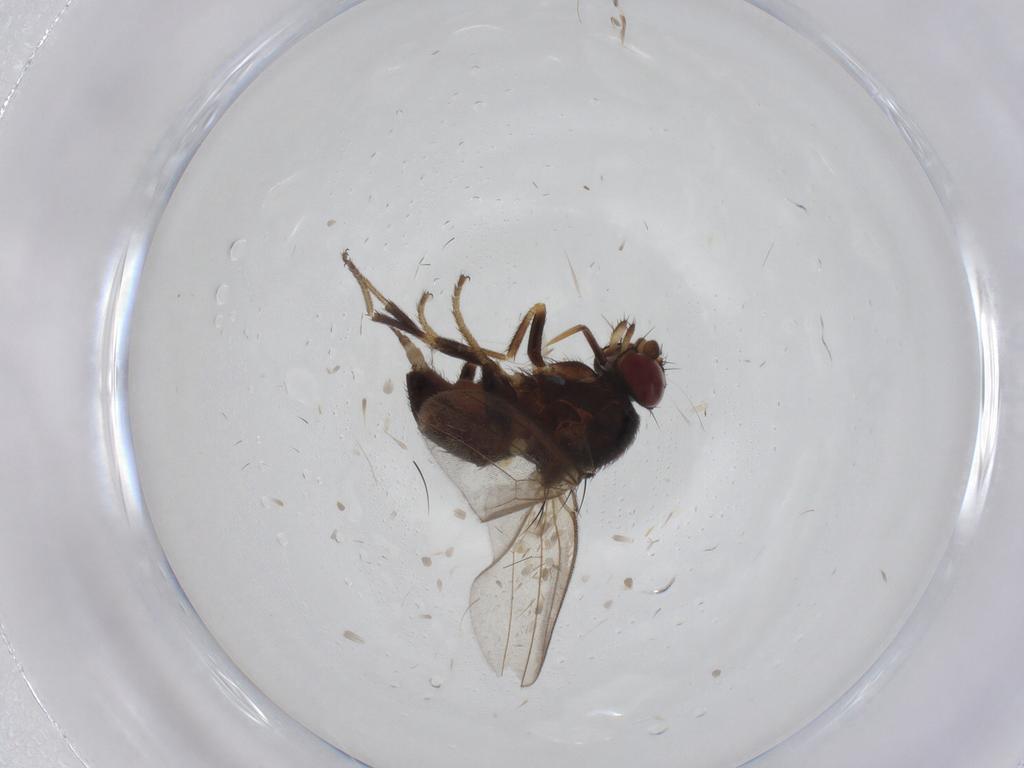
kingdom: Animalia
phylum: Arthropoda
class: Insecta
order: Diptera
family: Milichiidae
